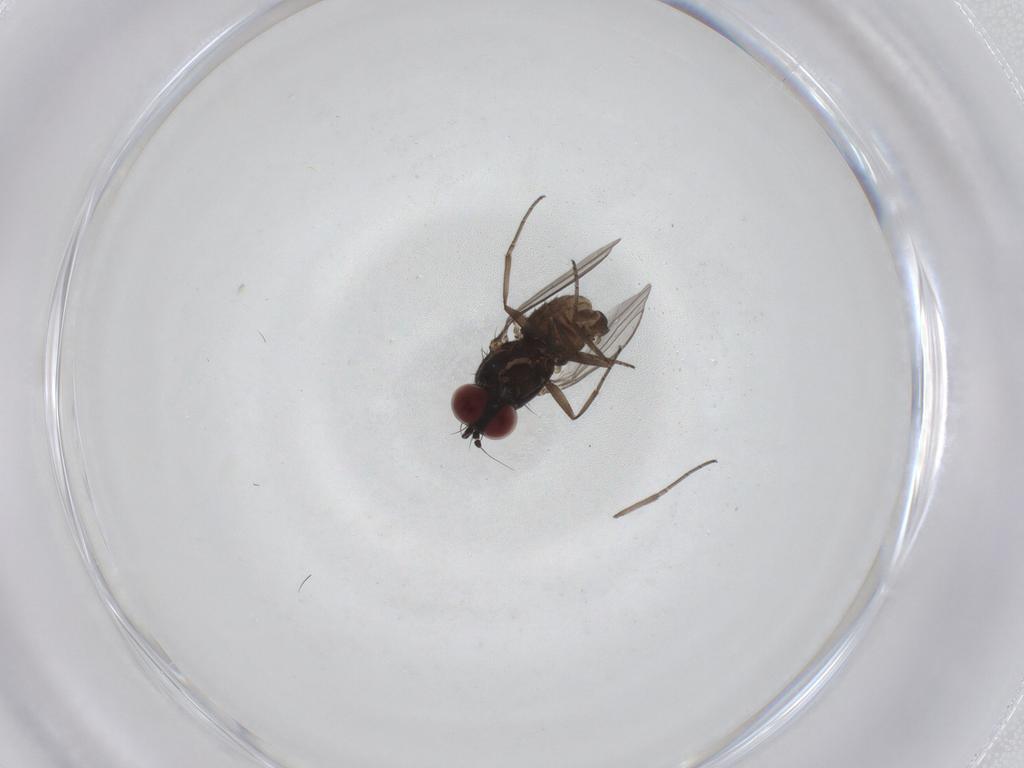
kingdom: Animalia
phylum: Arthropoda
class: Insecta
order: Diptera
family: Dolichopodidae
